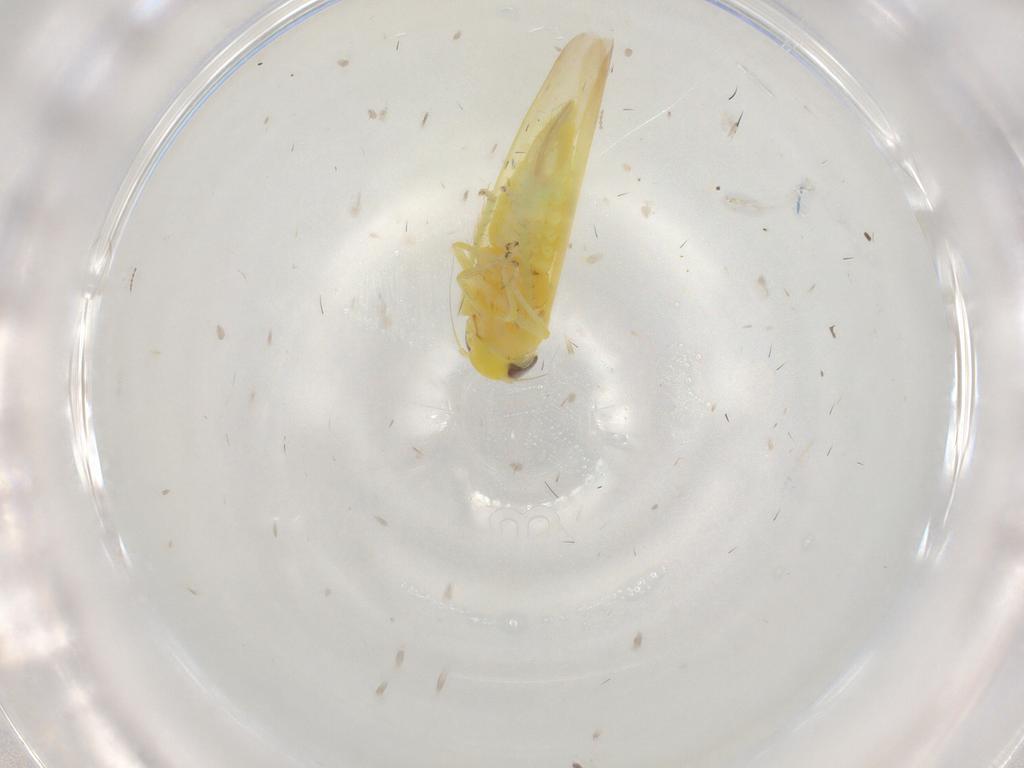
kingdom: Animalia
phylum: Arthropoda
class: Insecta
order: Hemiptera
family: Cicadellidae
